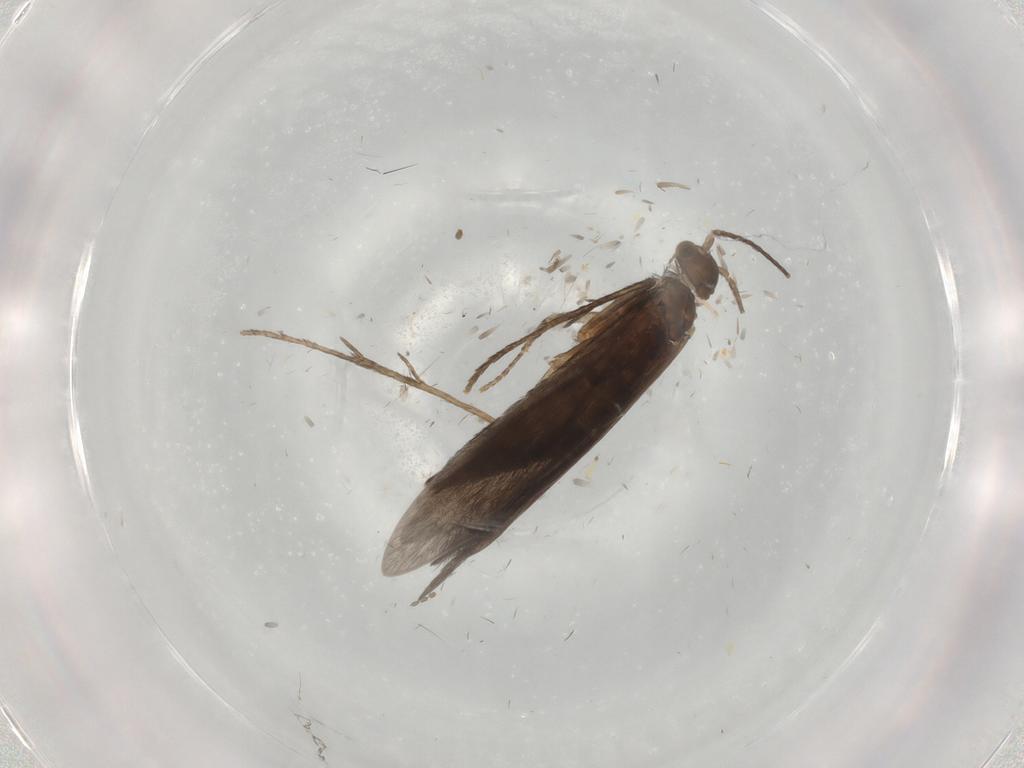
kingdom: Animalia
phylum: Arthropoda
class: Insecta
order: Trichoptera
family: Xiphocentronidae
